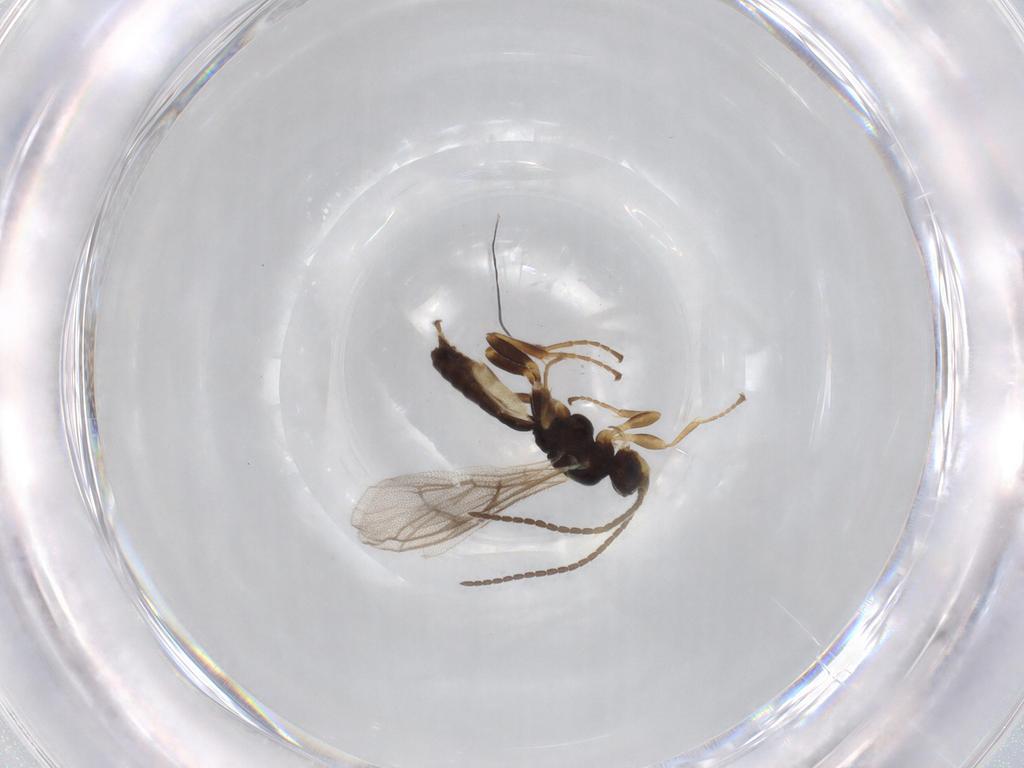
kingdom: Animalia
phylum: Arthropoda
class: Insecta
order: Hymenoptera
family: Ichneumonidae
